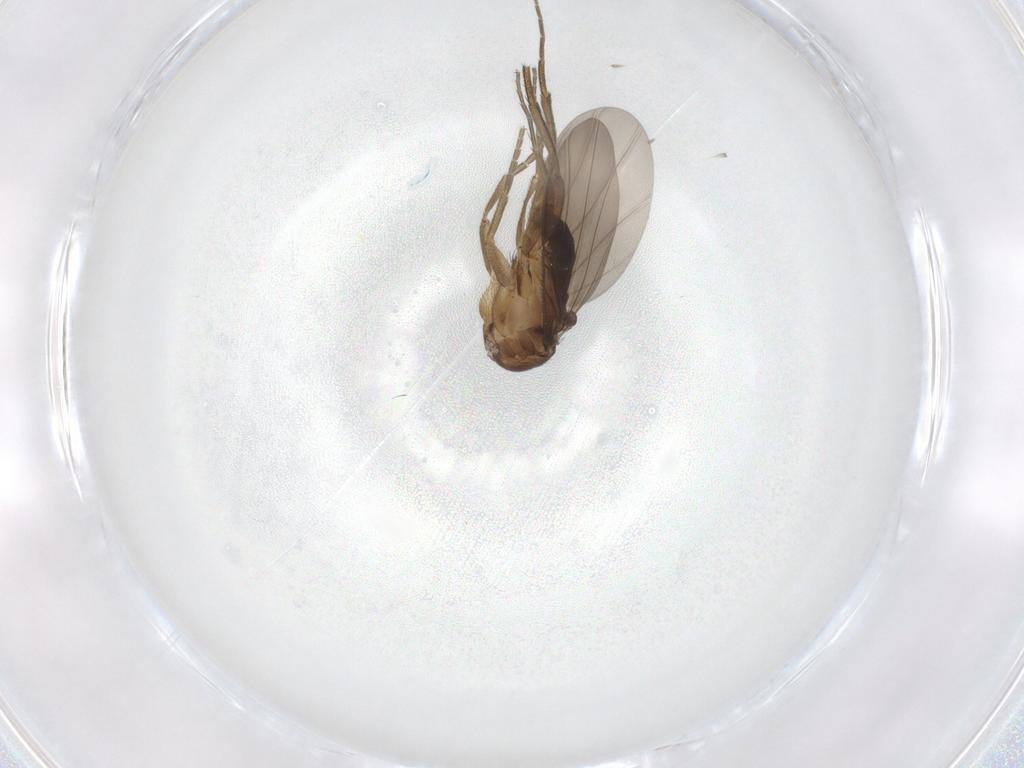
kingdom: Animalia
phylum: Arthropoda
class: Insecta
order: Diptera
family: Phoridae
